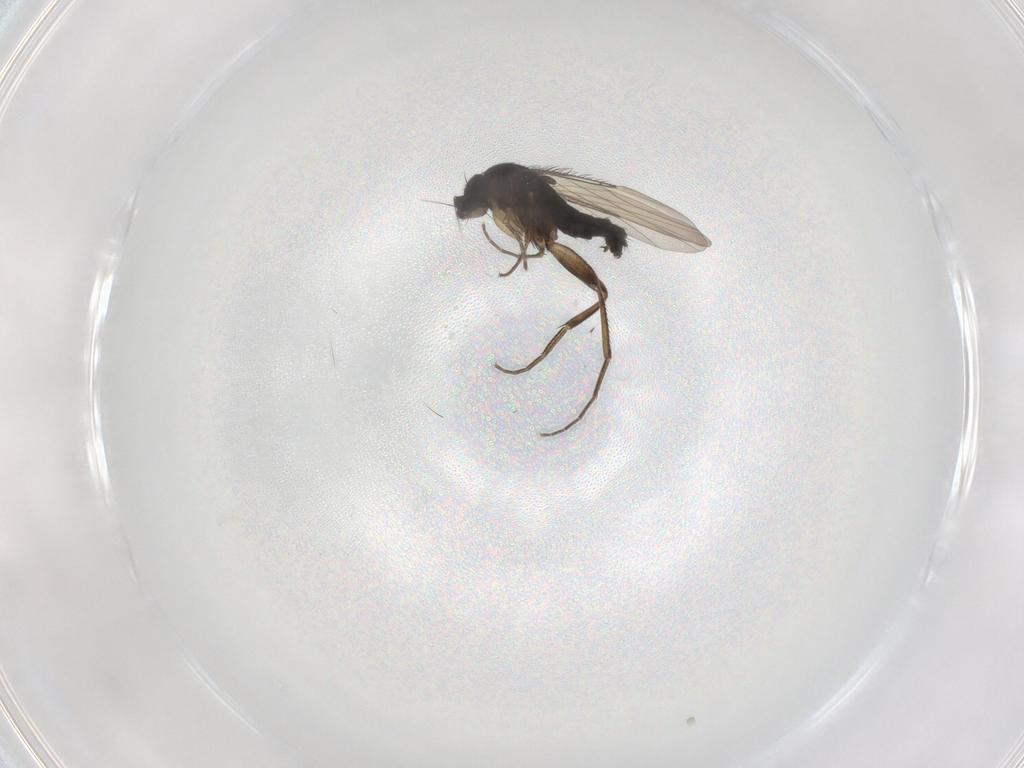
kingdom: Animalia
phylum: Arthropoda
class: Insecta
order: Diptera
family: Phoridae
